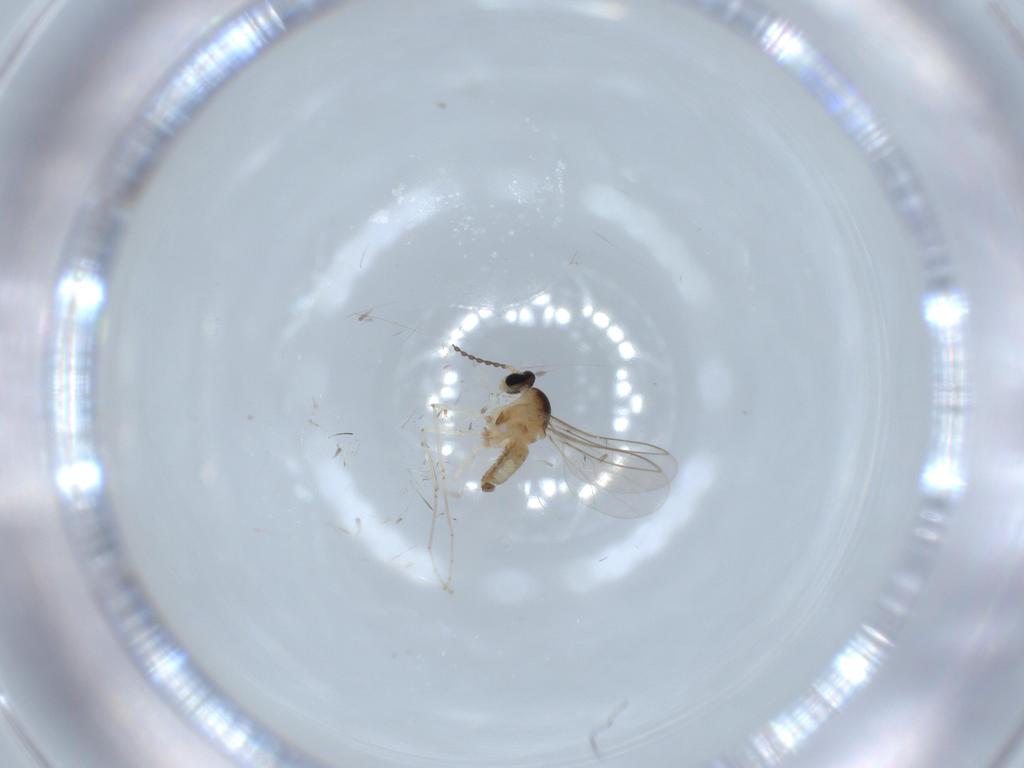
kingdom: Animalia
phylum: Arthropoda
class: Insecta
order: Diptera
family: Cecidomyiidae
